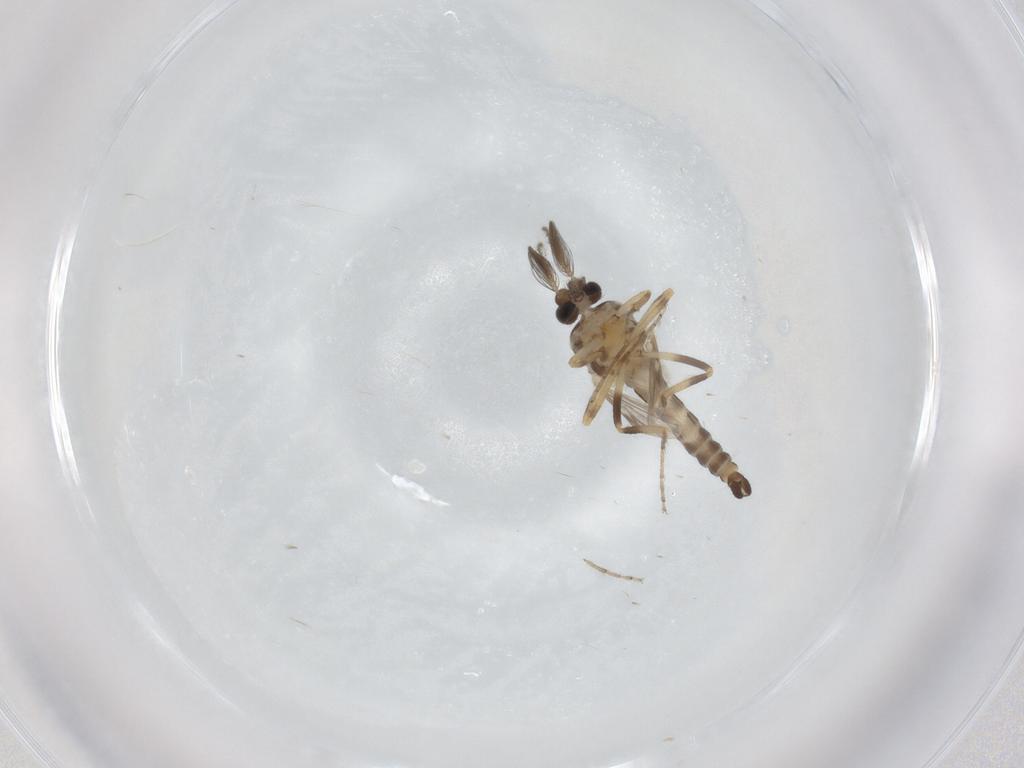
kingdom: Animalia
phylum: Arthropoda
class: Insecta
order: Diptera
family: Ceratopogonidae
